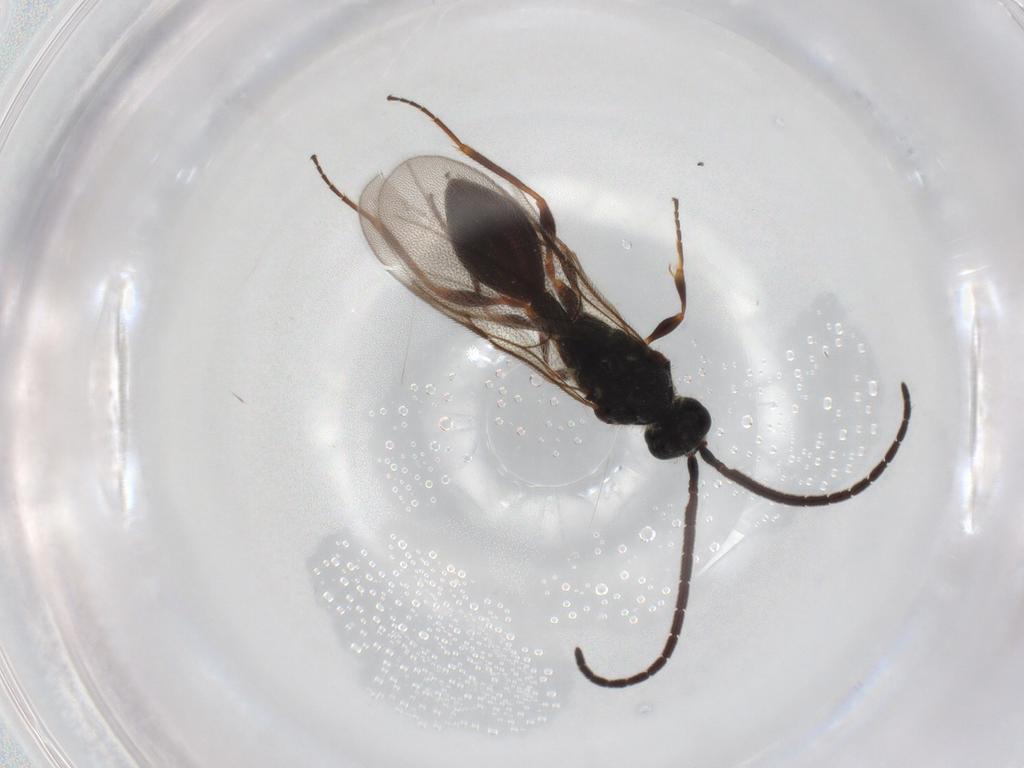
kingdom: Animalia
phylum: Arthropoda
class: Insecta
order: Hymenoptera
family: Diapriidae
